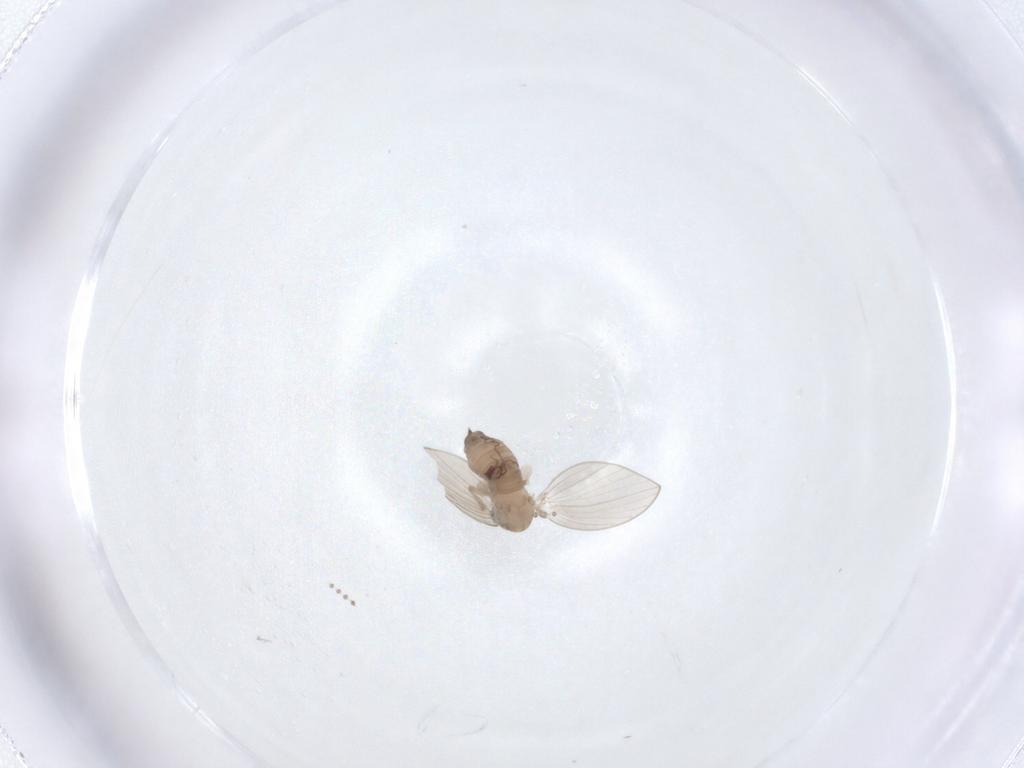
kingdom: Animalia
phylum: Arthropoda
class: Insecta
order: Diptera
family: Psychodidae
